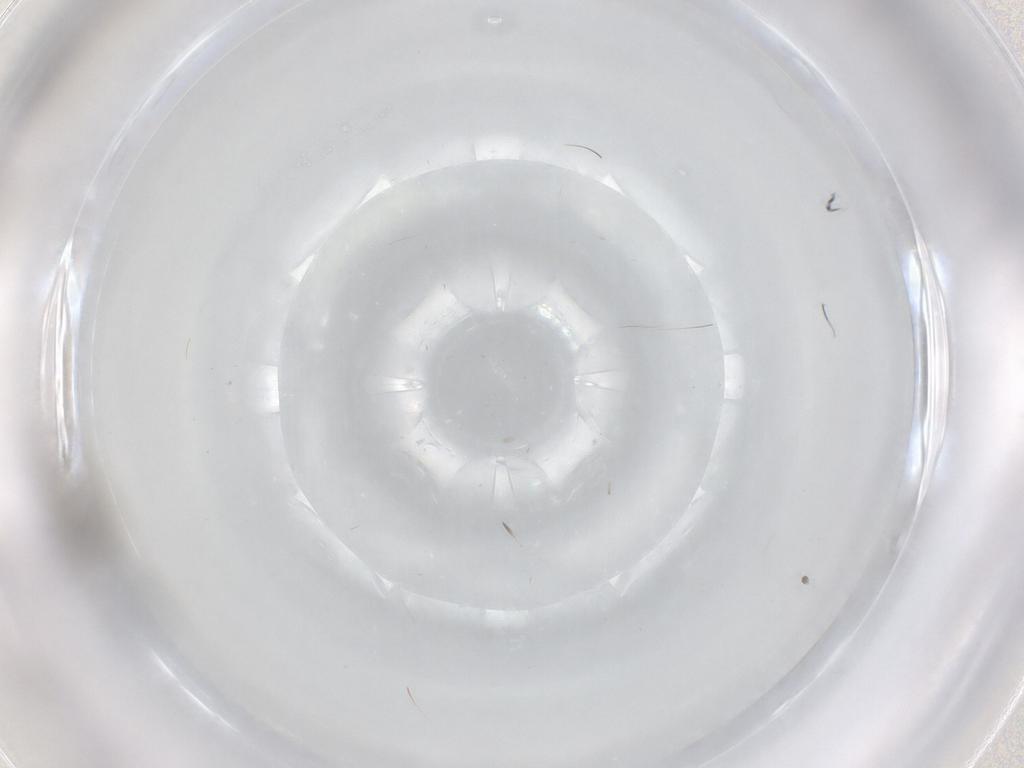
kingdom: Animalia
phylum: Arthropoda
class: Insecta
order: Diptera
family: Cecidomyiidae
